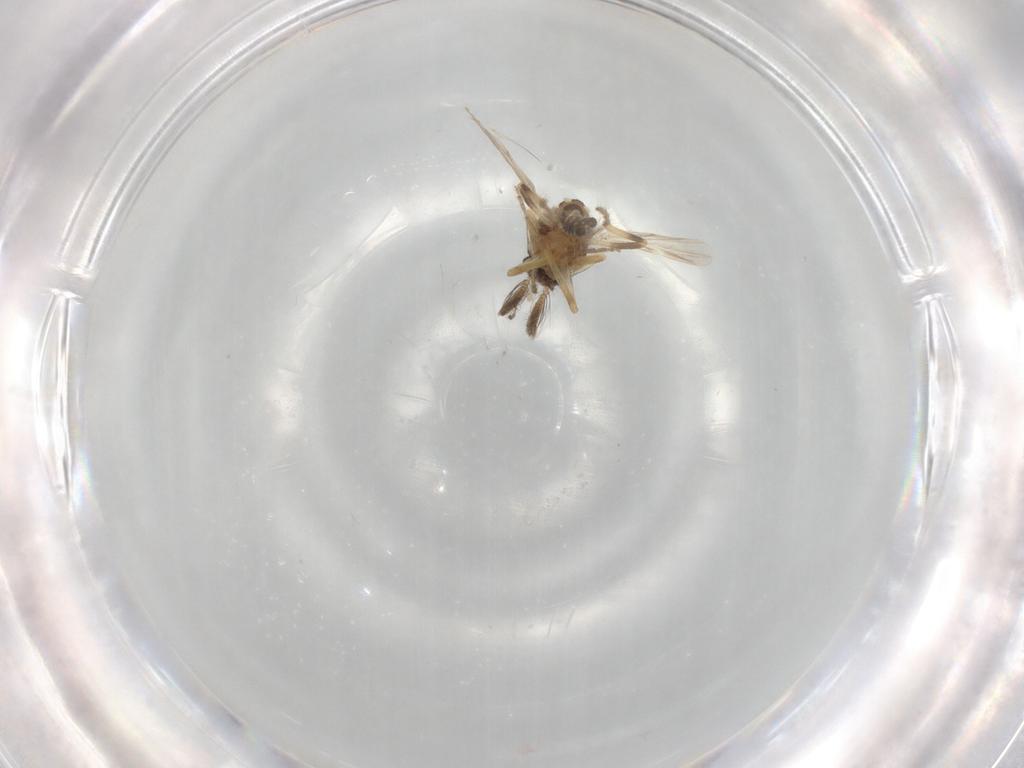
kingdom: Animalia
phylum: Arthropoda
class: Insecta
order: Diptera
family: Ceratopogonidae
